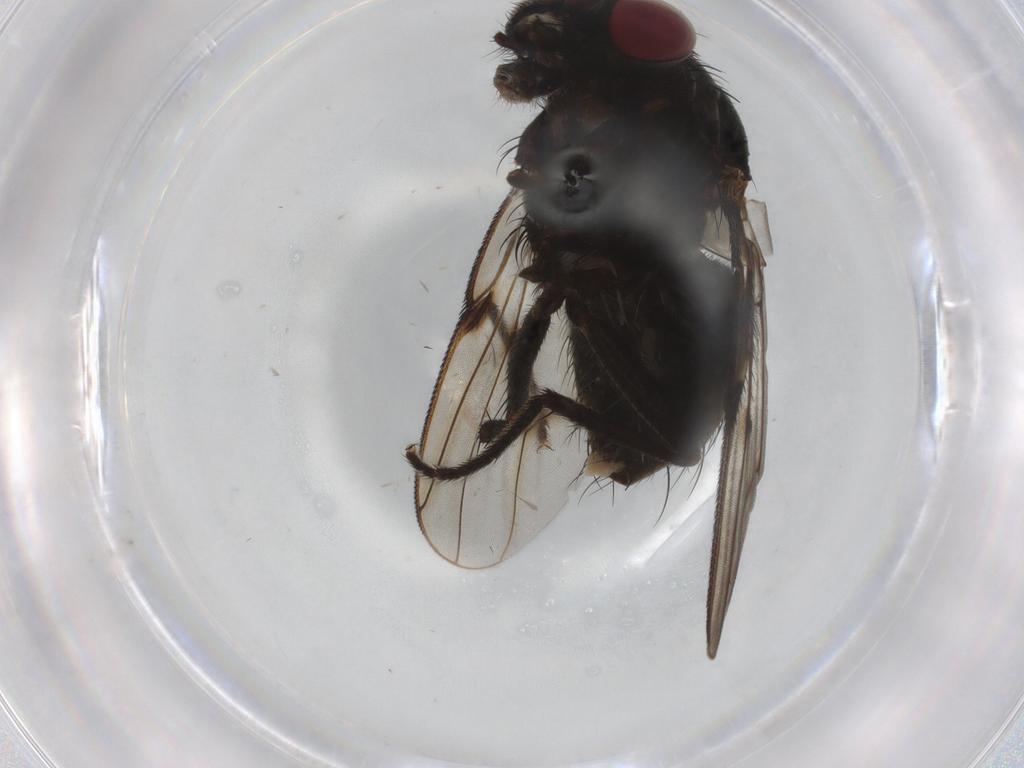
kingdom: Animalia
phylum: Arthropoda
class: Insecta
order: Diptera
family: Muscidae
